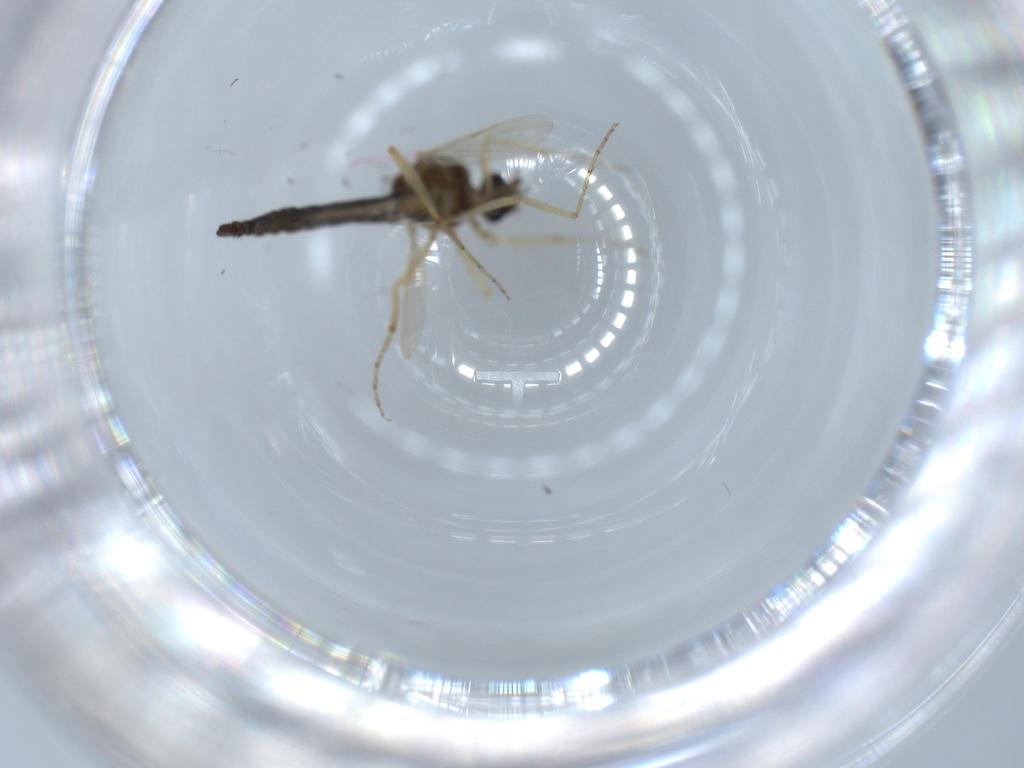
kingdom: Animalia
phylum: Arthropoda
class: Insecta
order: Diptera
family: Ceratopogonidae
